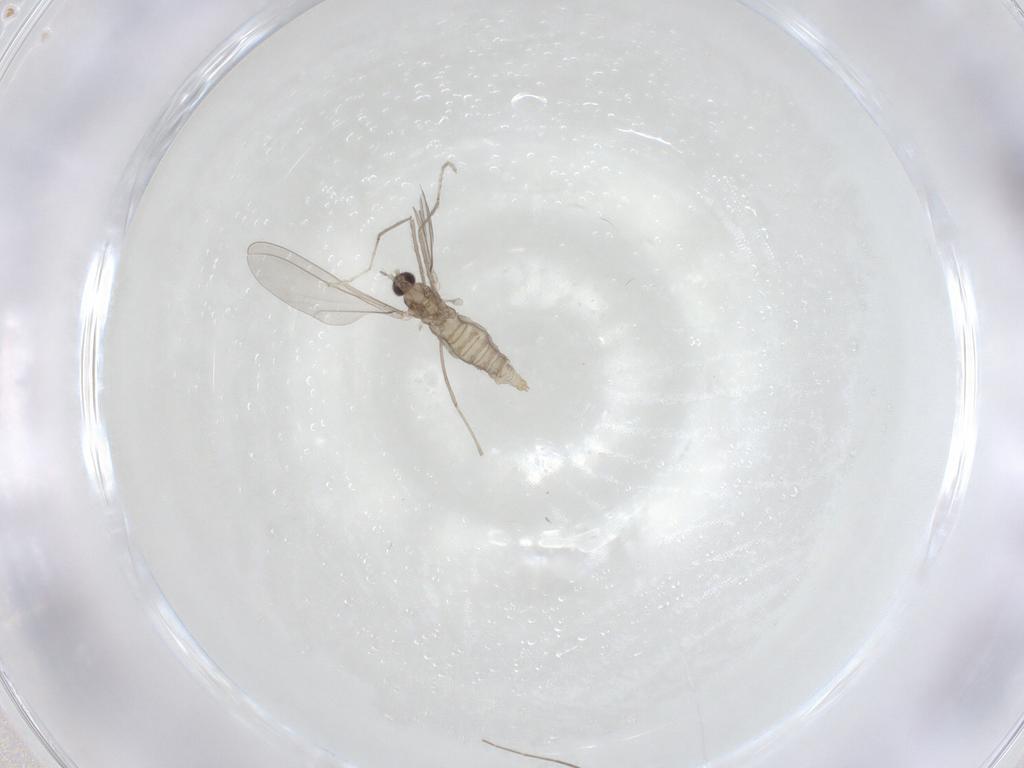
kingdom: Animalia
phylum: Arthropoda
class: Insecta
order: Diptera
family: Cecidomyiidae
